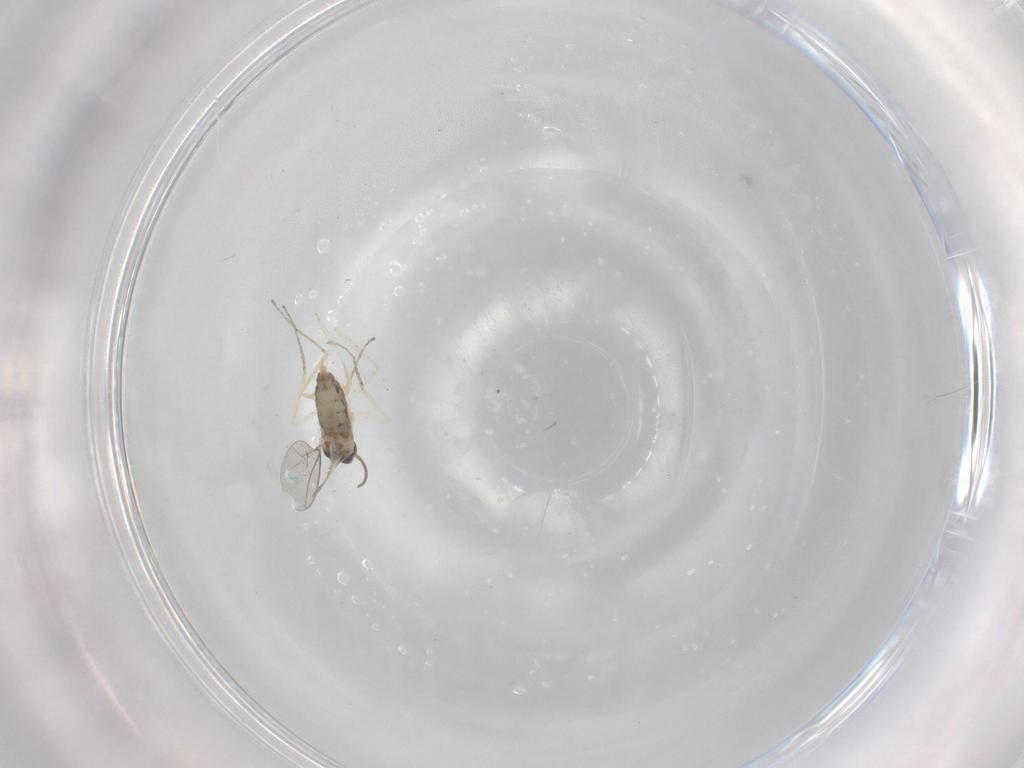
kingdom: Animalia
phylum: Arthropoda
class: Insecta
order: Diptera
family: Cecidomyiidae
